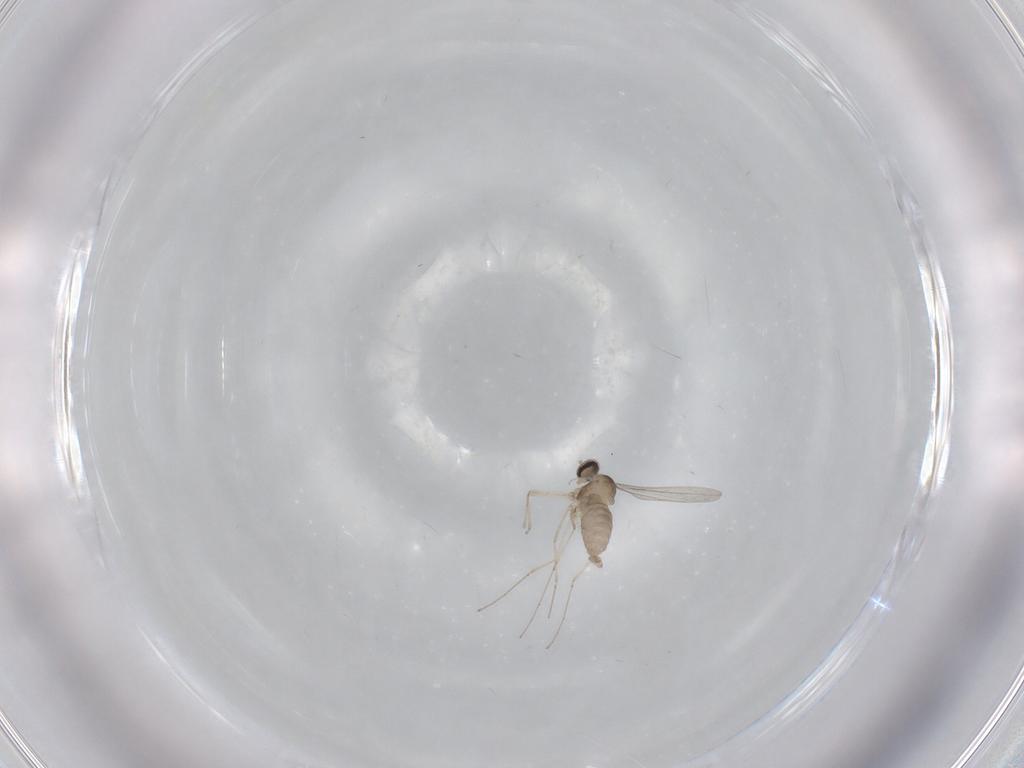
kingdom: Animalia
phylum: Arthropoda
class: Insecta
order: Diptera
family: Cecidomyiidae
